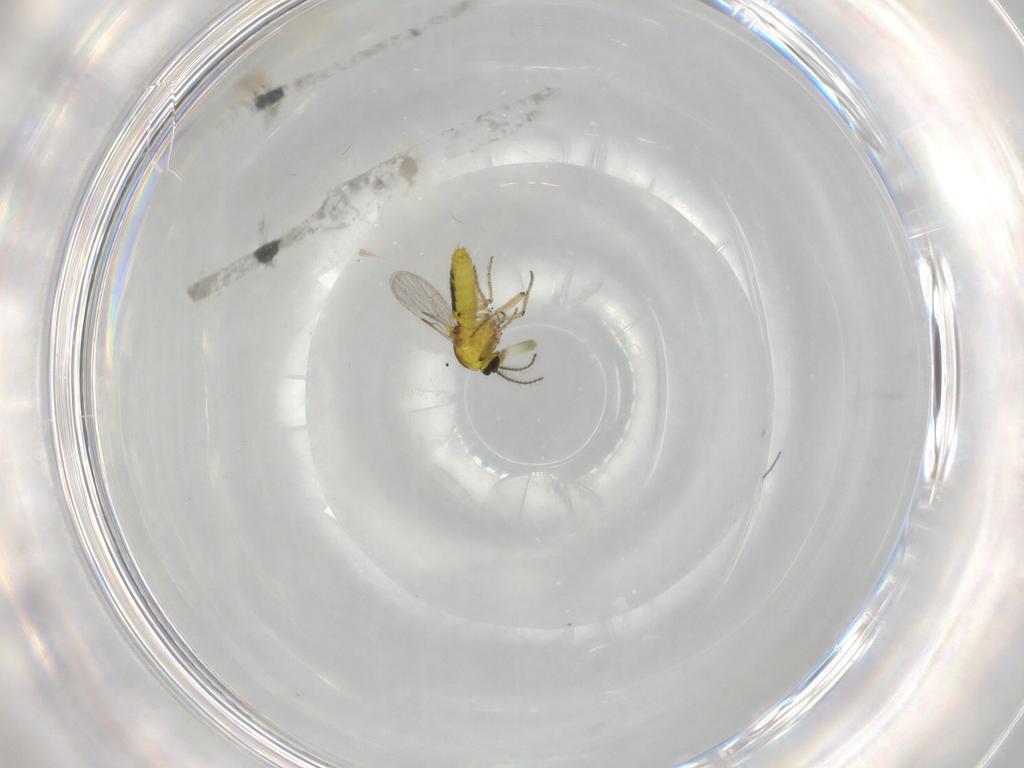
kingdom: Animalia
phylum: Arthropoda
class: Insecta
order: Diptera
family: Ceratopogonidae
